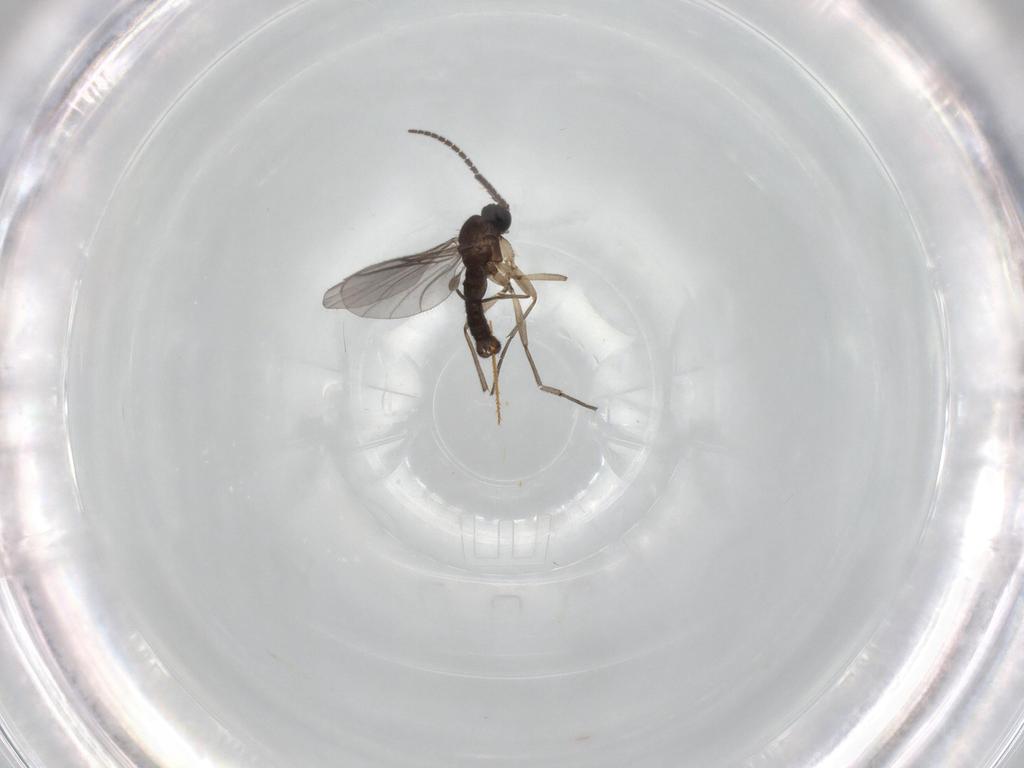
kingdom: Animalia
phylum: Arthropoda
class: Insecta
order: Diptera
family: Sciaridae
